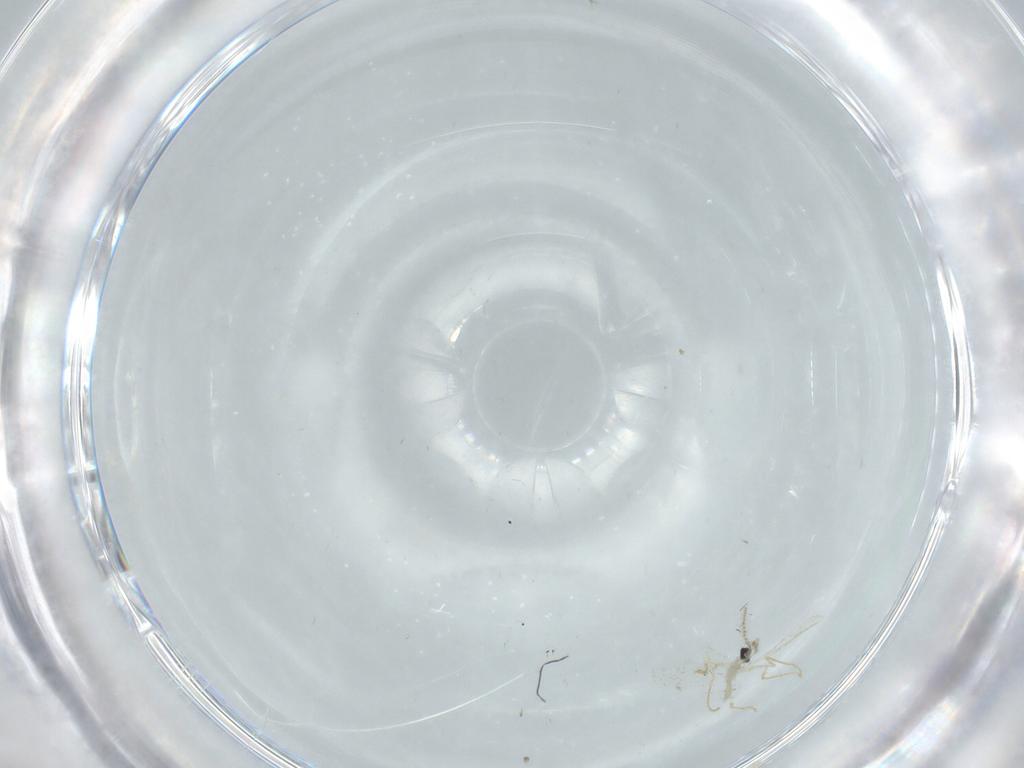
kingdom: Animalia
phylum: Arthropoda
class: Insecta
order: Diptera
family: Cecidomyiidae
